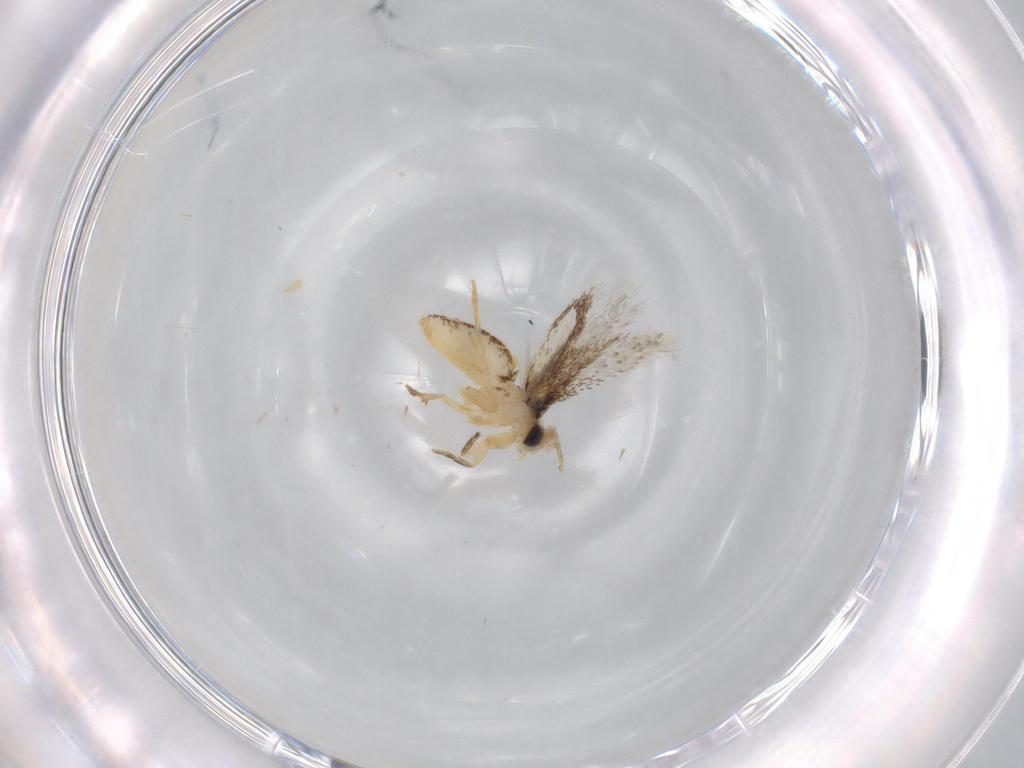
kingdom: Animalia
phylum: Arthropoda
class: Insecta
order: Lepidoptera
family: Nepticulidae
